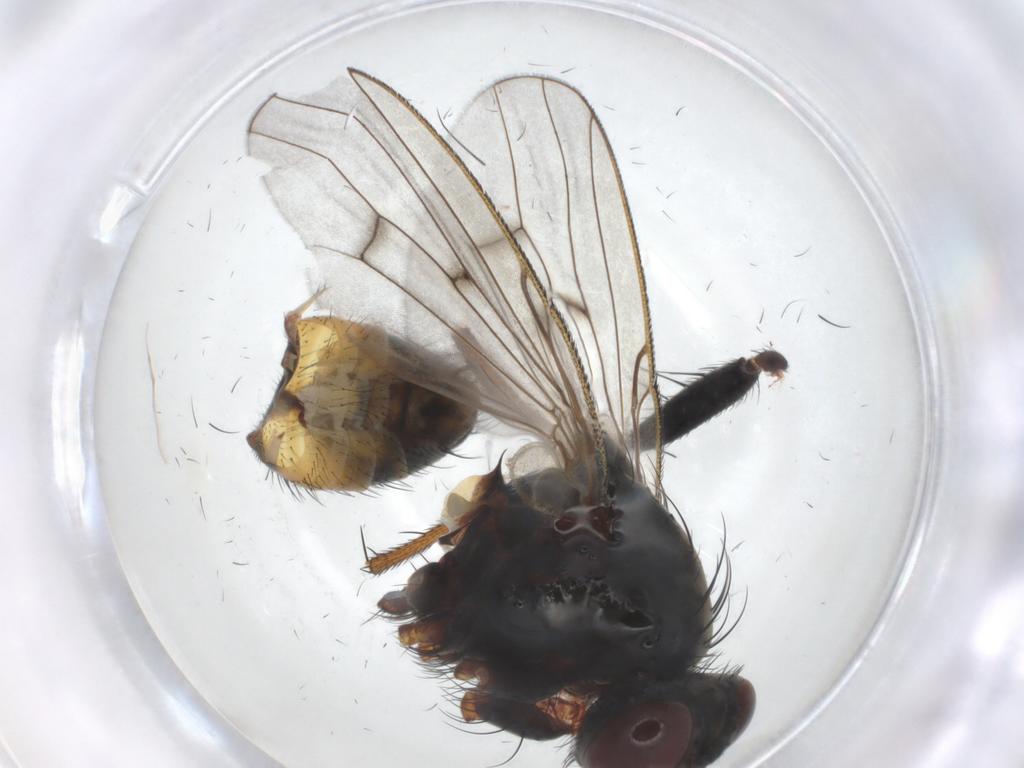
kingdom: Animalia
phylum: Arthropoda
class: Insecta
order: Diptera
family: Muscidae
